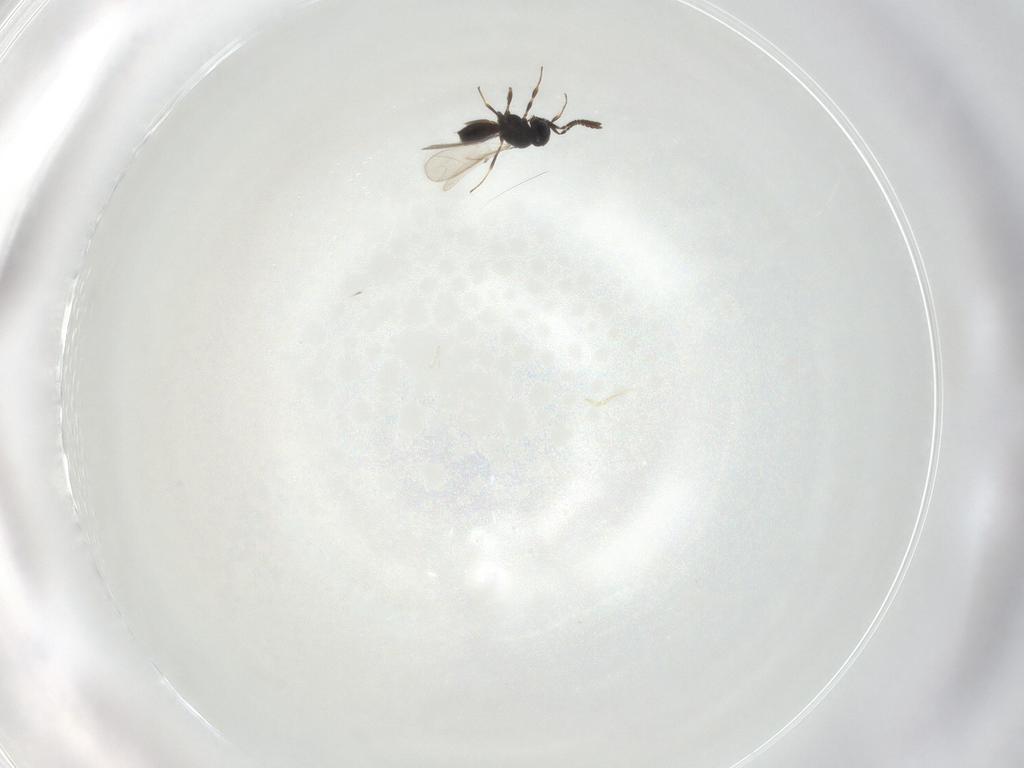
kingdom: Animalia
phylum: Arthropoda
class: Insecta
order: Hymenoptera
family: Scelionidae
